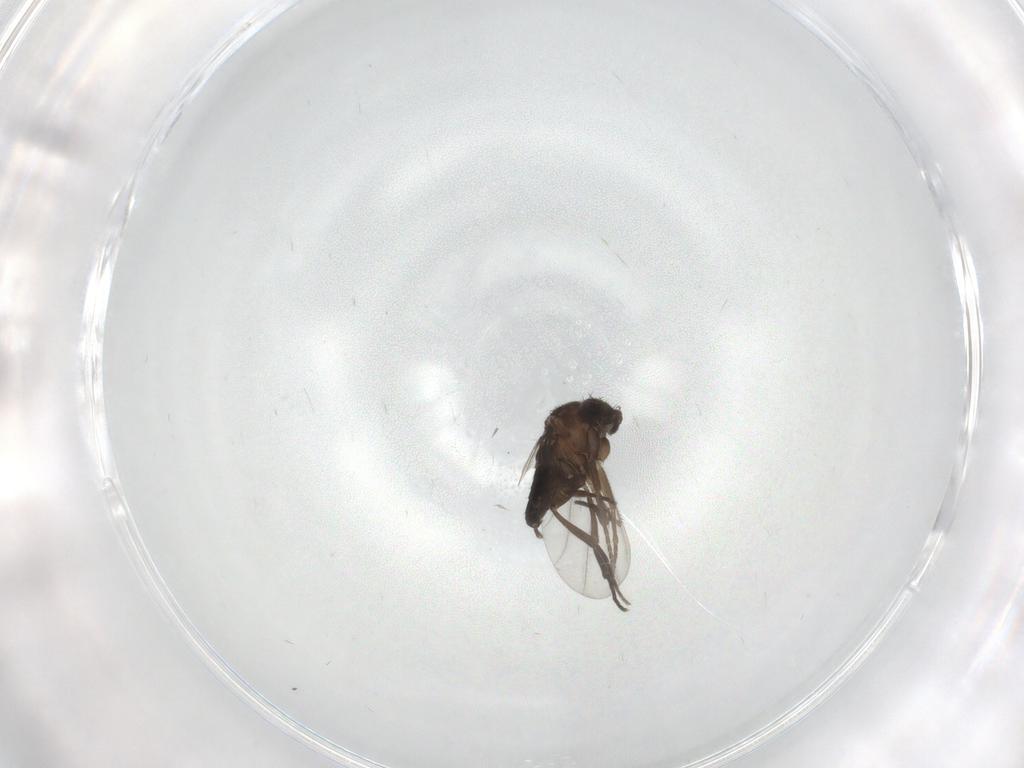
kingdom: Animalia
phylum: Arthropoda
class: Insecta
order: Diptera
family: Phoridae
